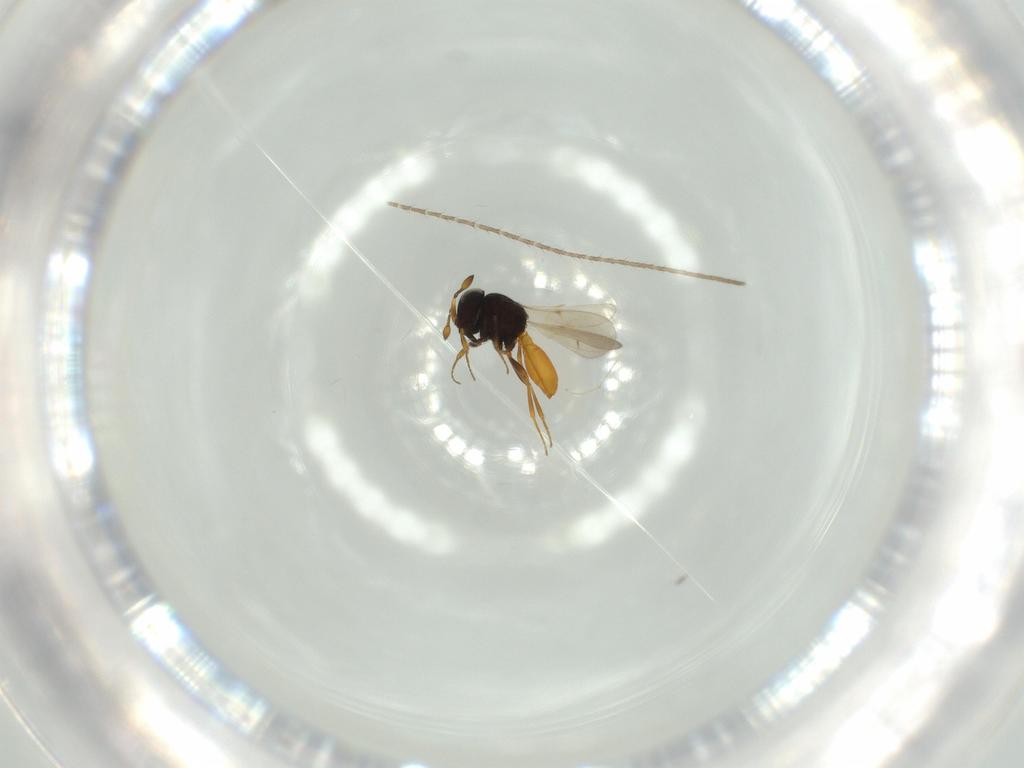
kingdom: Animalia
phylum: Arthropoda
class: Insecta
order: Hymenoptera
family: Scelionidae
